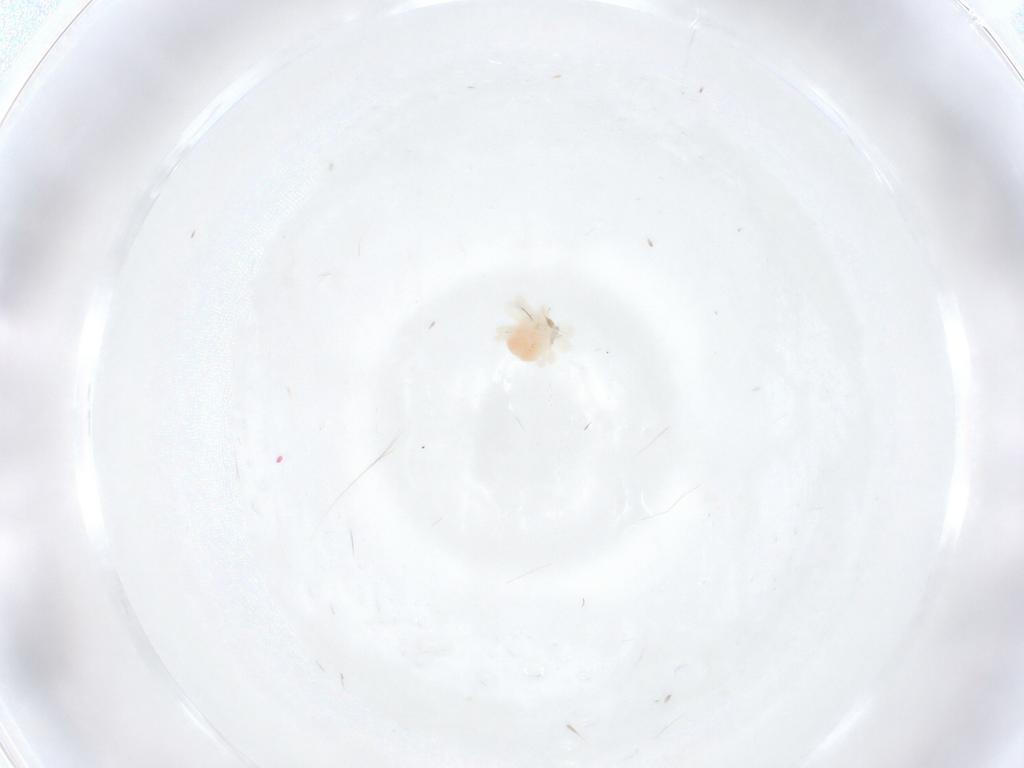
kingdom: Animalia
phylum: Arthropoda
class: Arachnida
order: Trombidiformes
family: Anystidae
